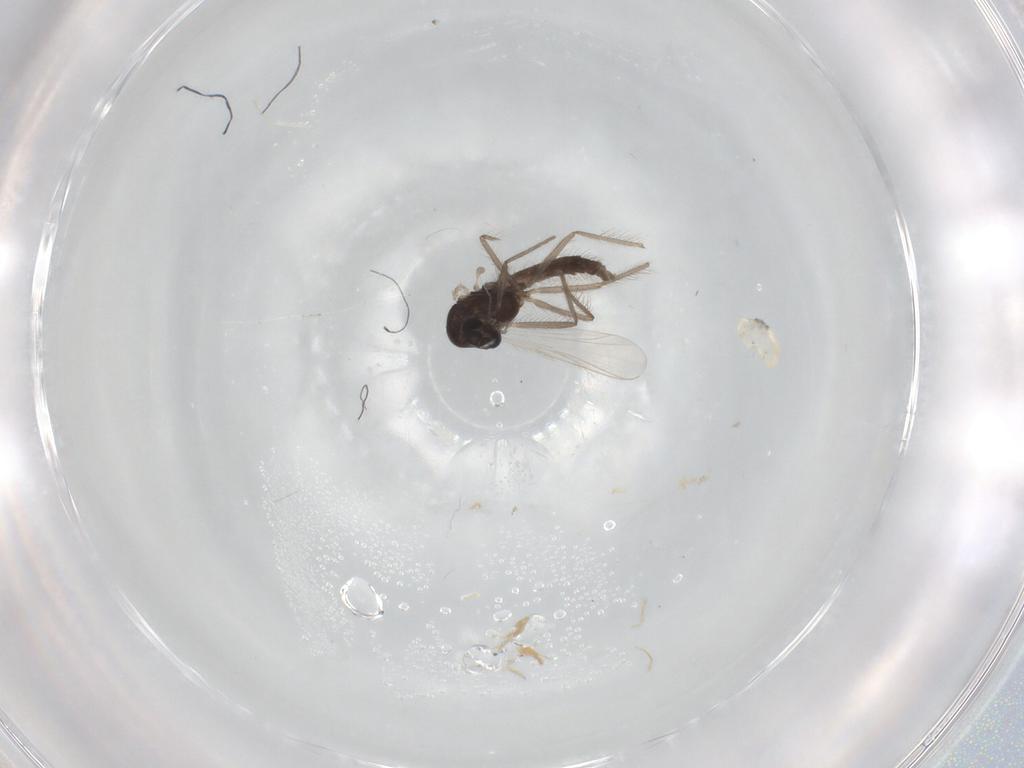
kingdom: Animalia
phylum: Arthropoda
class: Insecta
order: Diptera
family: Chironomidae
